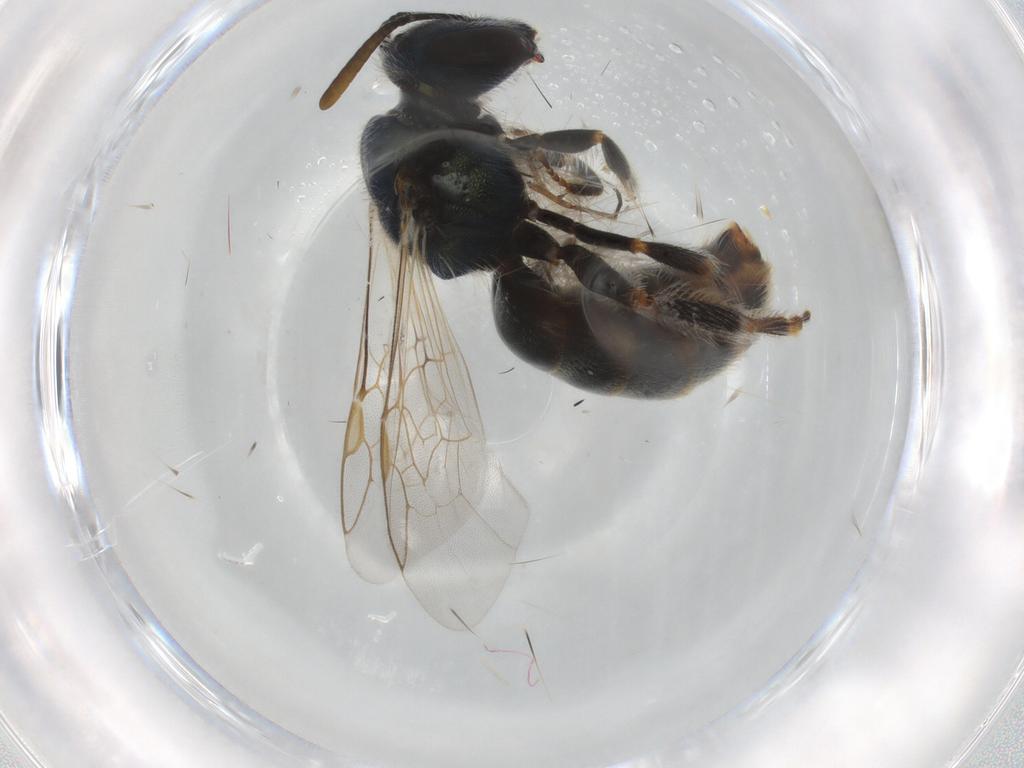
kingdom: Animalia
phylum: Arthropoda
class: Insecta
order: Hymenoptera
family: Halictidae
